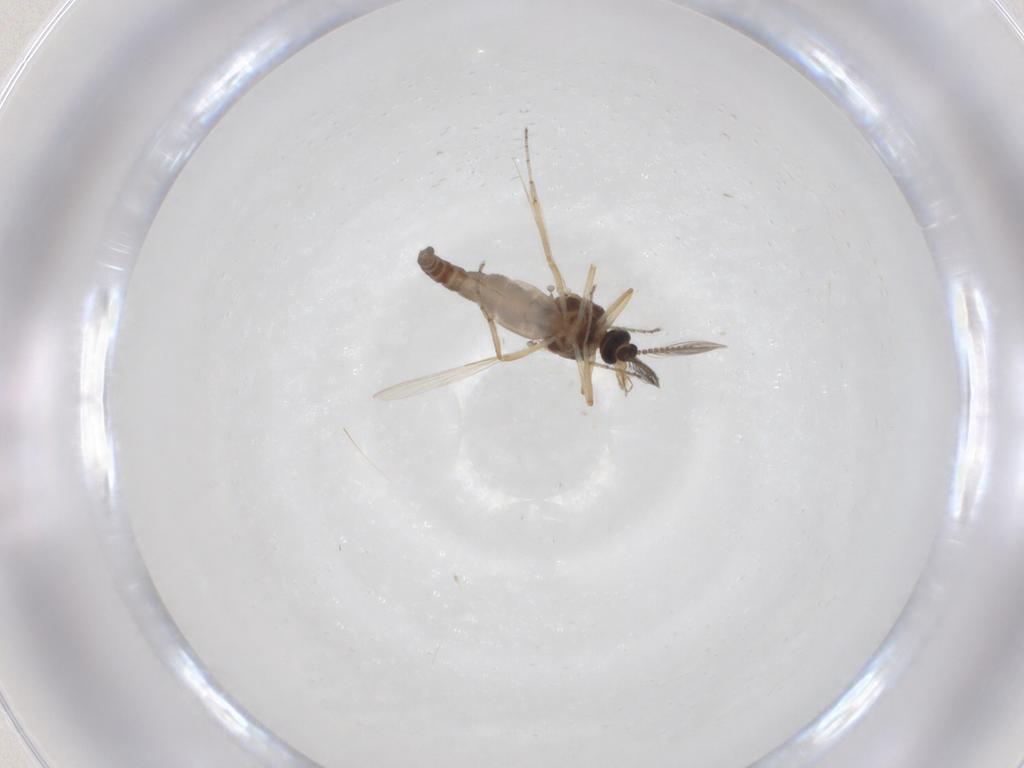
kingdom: Animalia
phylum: Arthropoda
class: Insecta
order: Diptera
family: Ceratopogonidae
